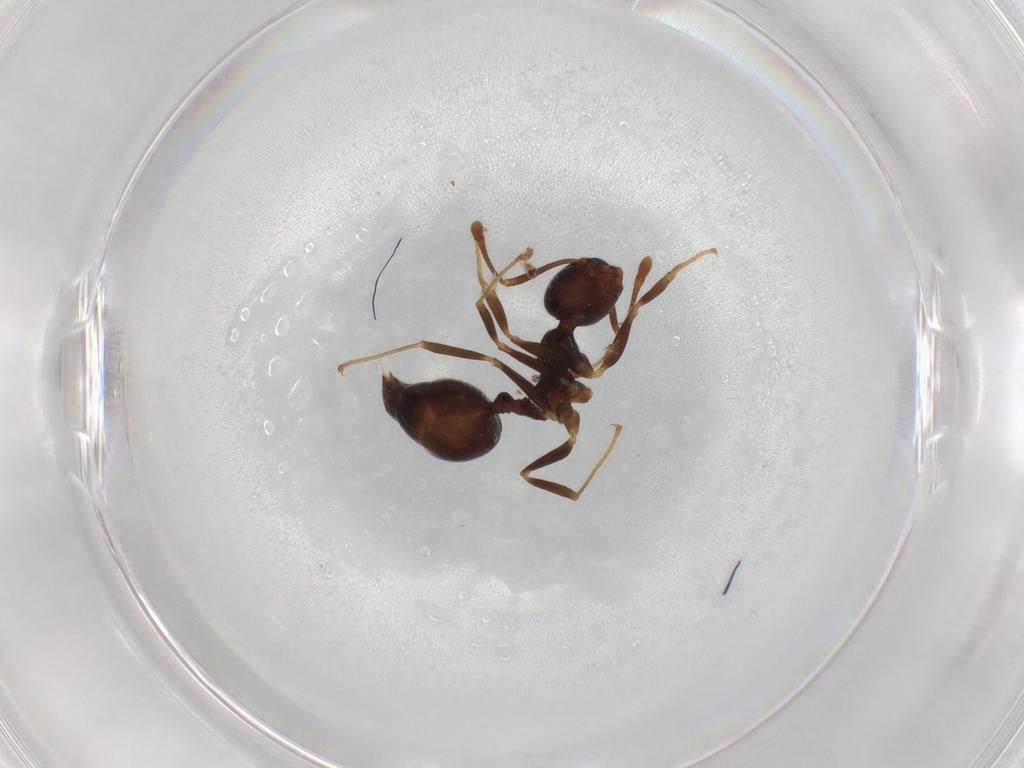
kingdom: Animalia
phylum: Arthropoda
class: Insecta
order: Hymenoptera
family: Formicidae
